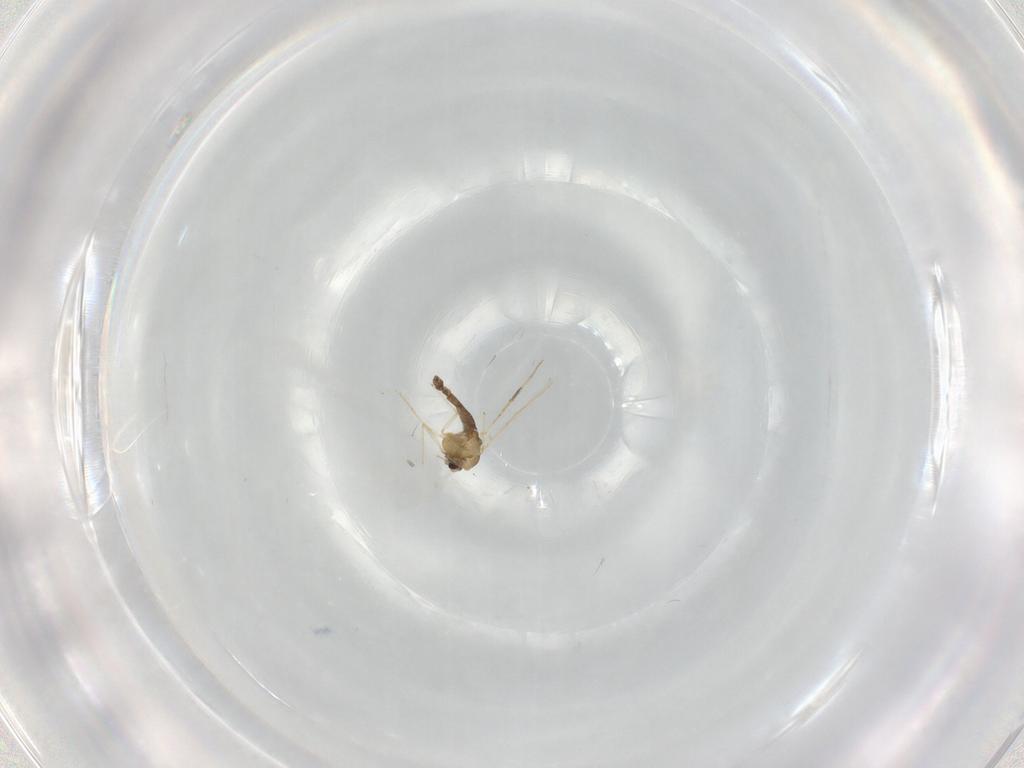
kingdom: Animalia
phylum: Arthropoda
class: Insecta
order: Diptera
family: Chironomidae
